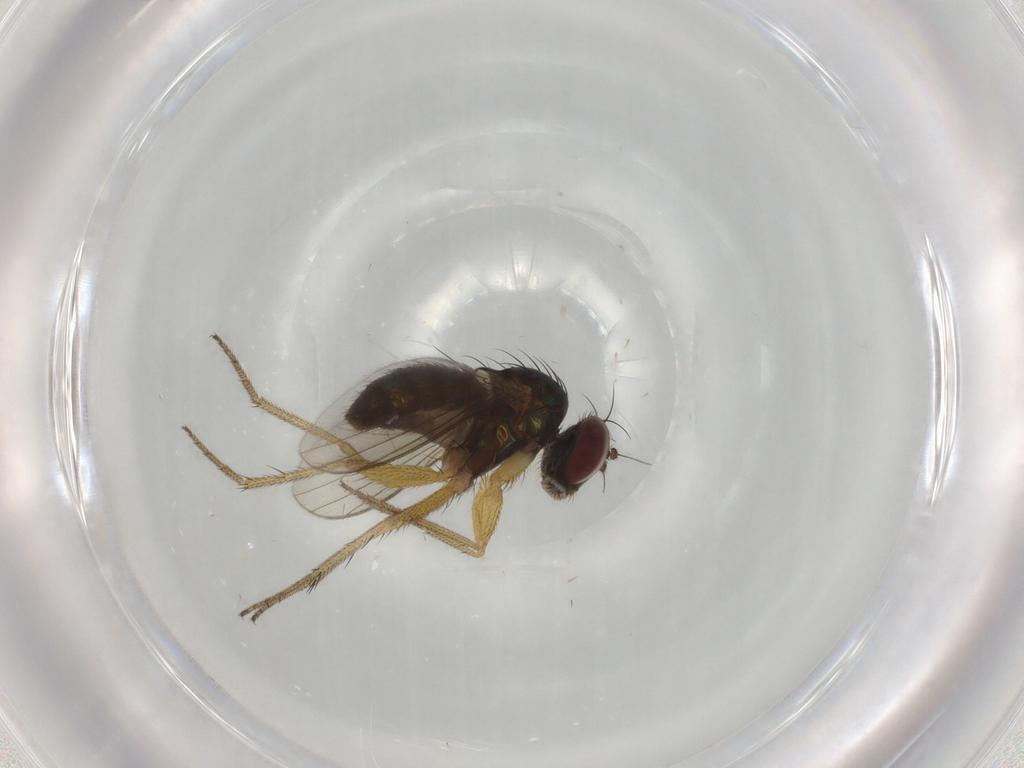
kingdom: Animalia
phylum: Arthropoda
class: Insecta
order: Diptera
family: Dolichopodidae
